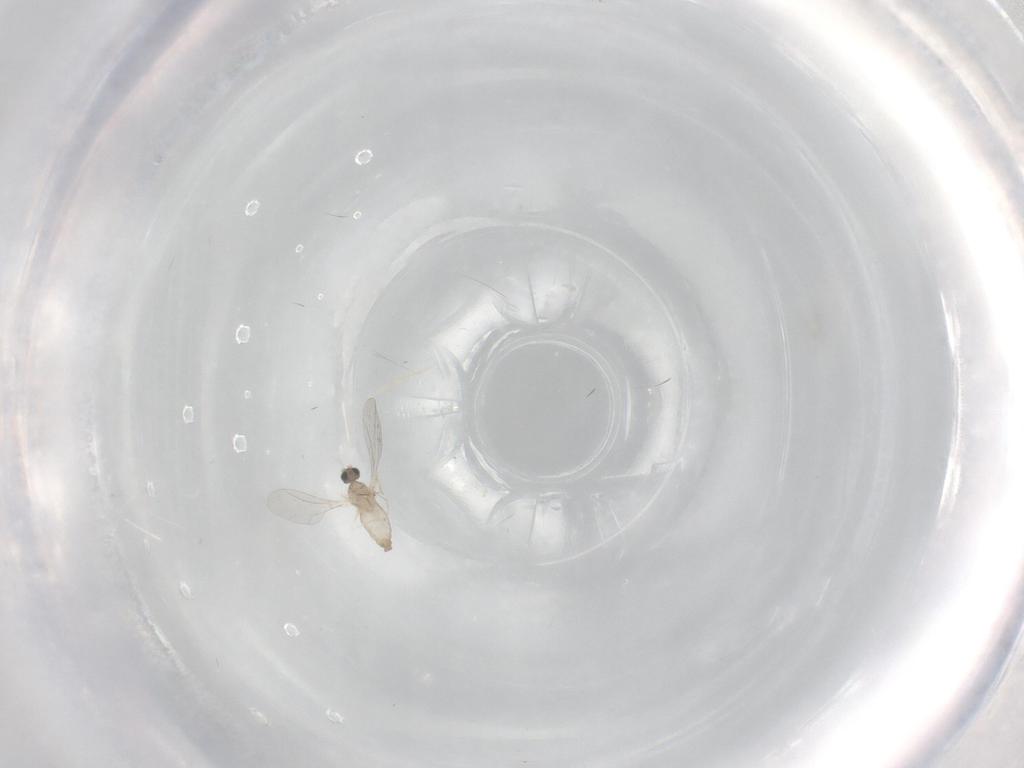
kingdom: Animalia
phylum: Arthropoda
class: Insecta
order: Diptera
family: Cecidomyiidae
